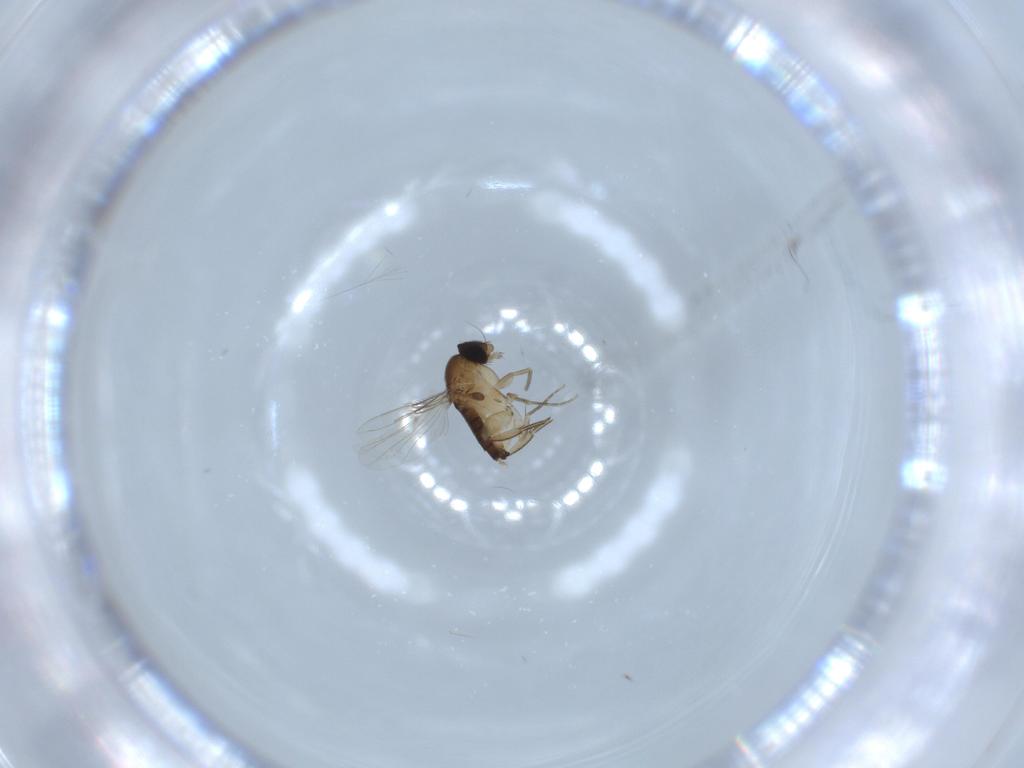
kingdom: Animalia
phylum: Arthropoda
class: Insecta
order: Diptera
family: Phoridae
